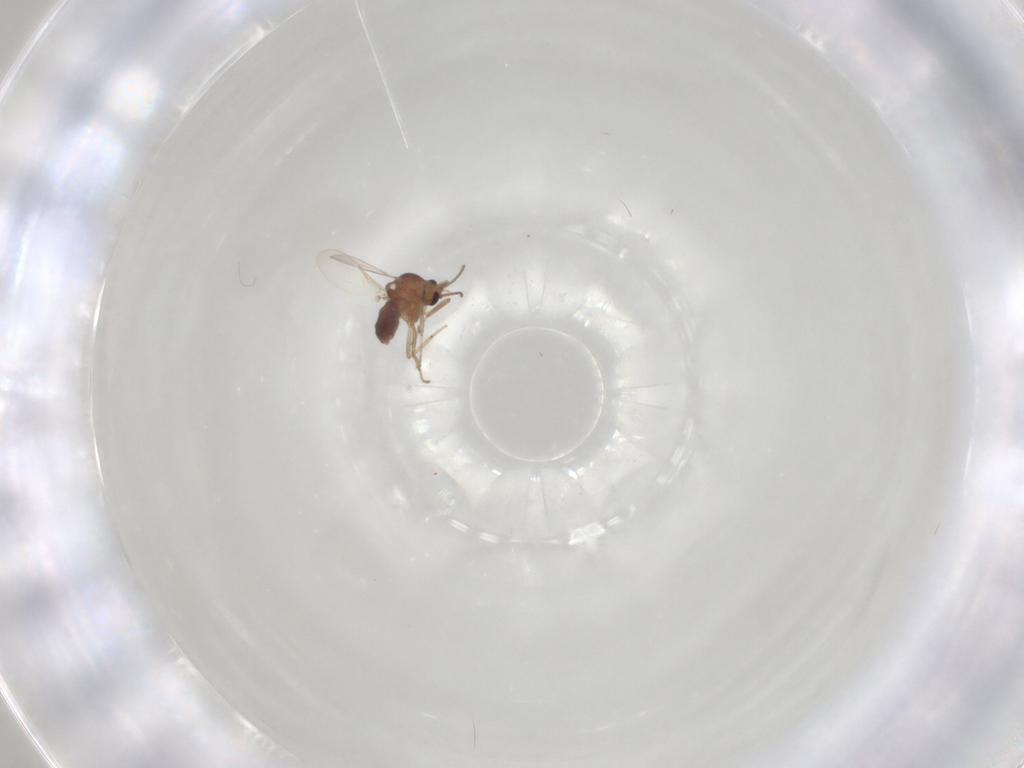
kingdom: Animalia
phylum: Arthropoda
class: Insecta
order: Diptera
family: Ceratopogonidae
